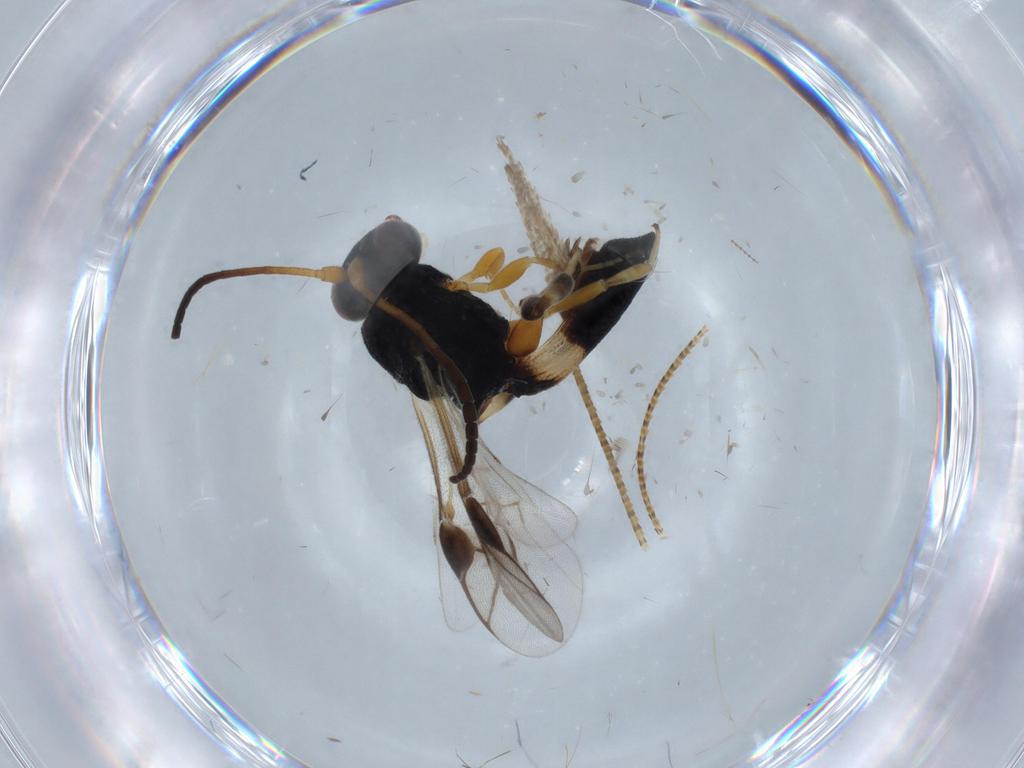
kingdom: Animalia
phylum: Arthropoda
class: Insecta
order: Hymenoptera
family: Braconidae
